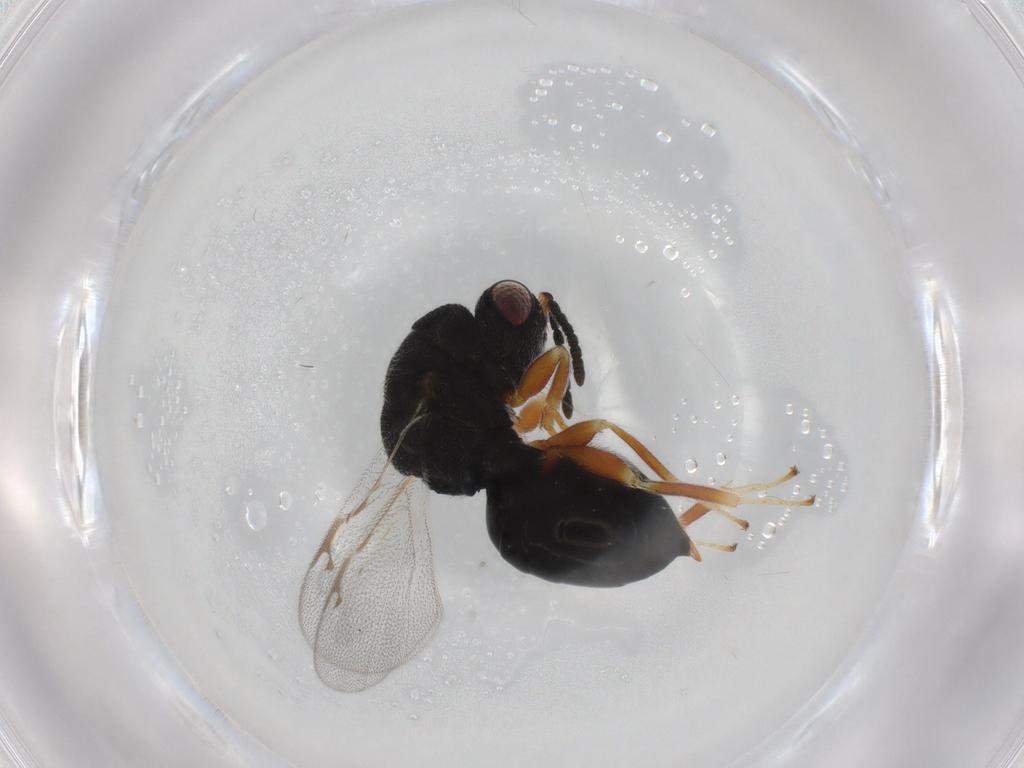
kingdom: Animalia
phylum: Arthropoda
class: Insecta
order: Hymenoptera
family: Eurytomidae
